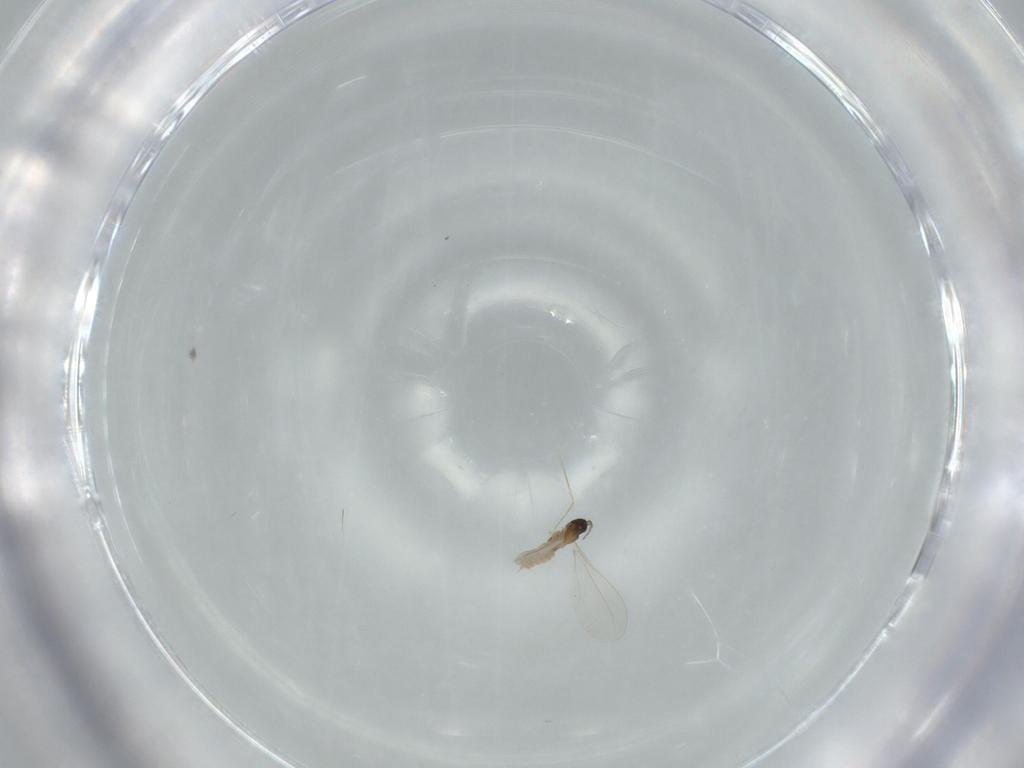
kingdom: Animalia
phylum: Arthropoda
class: Insecta
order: Diptera
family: Cecidomyiidae
